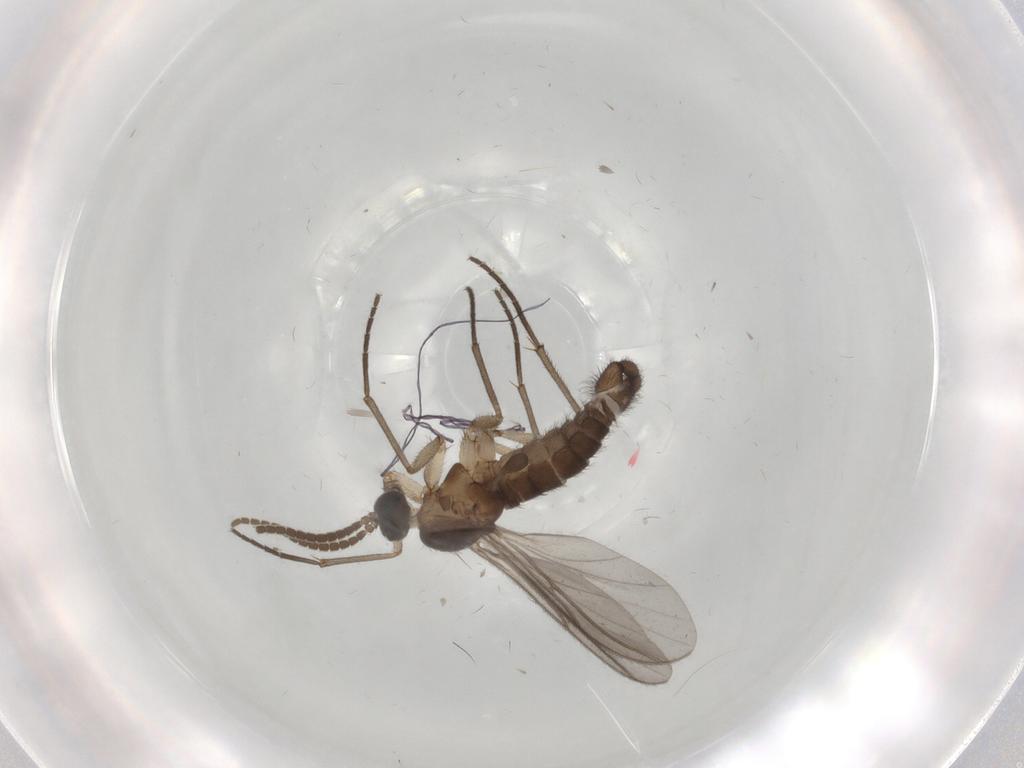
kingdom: Animalia
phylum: Arthropoda
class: Insecta
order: Diptera
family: Sciaridae
